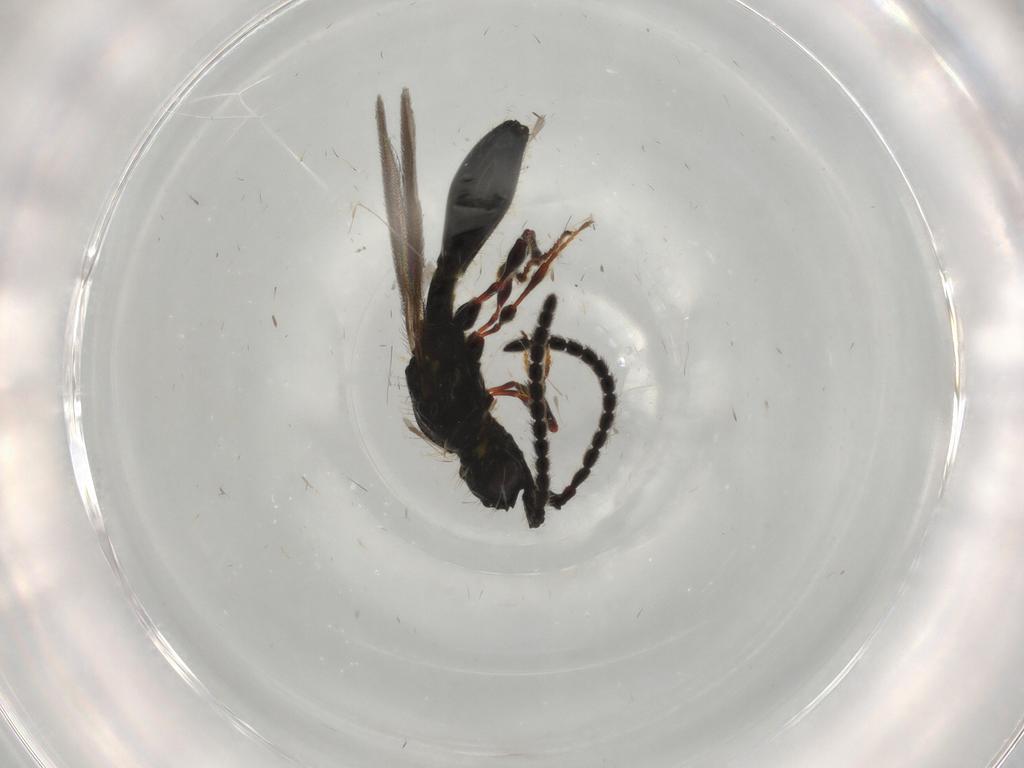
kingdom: Animalia
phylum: Arthropoda
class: Insecta
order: Hymenoptera
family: Diapriidae
